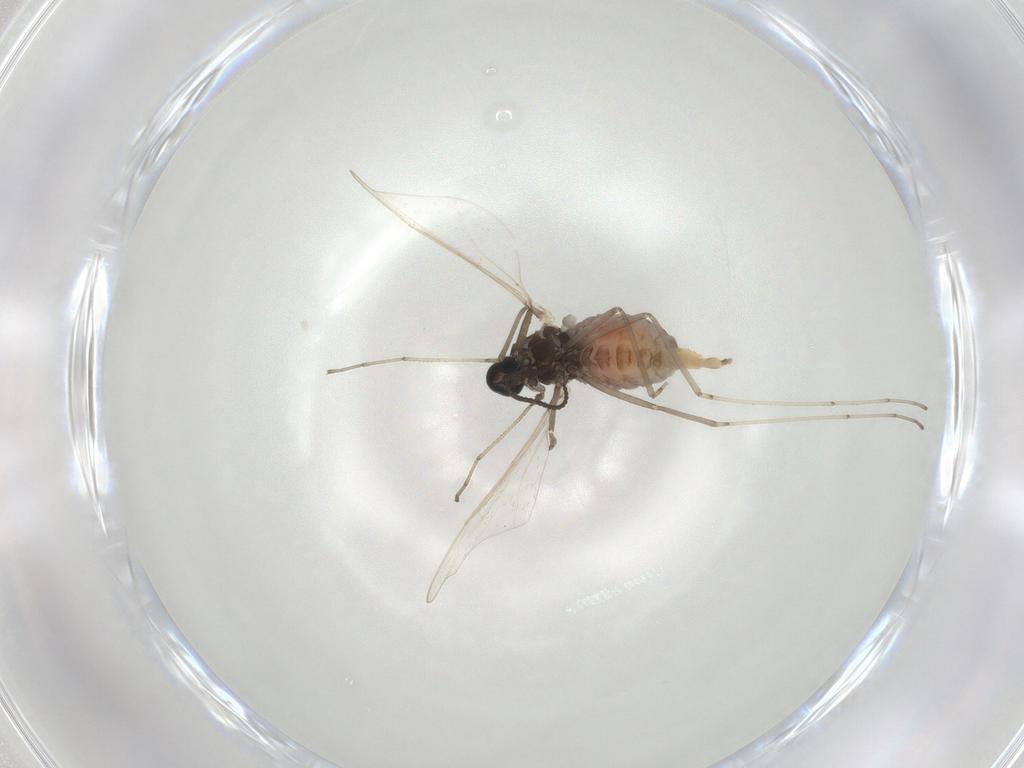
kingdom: Animalia
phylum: Arthropoda
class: Insecta
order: Diptera
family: Cecidomyiidae
